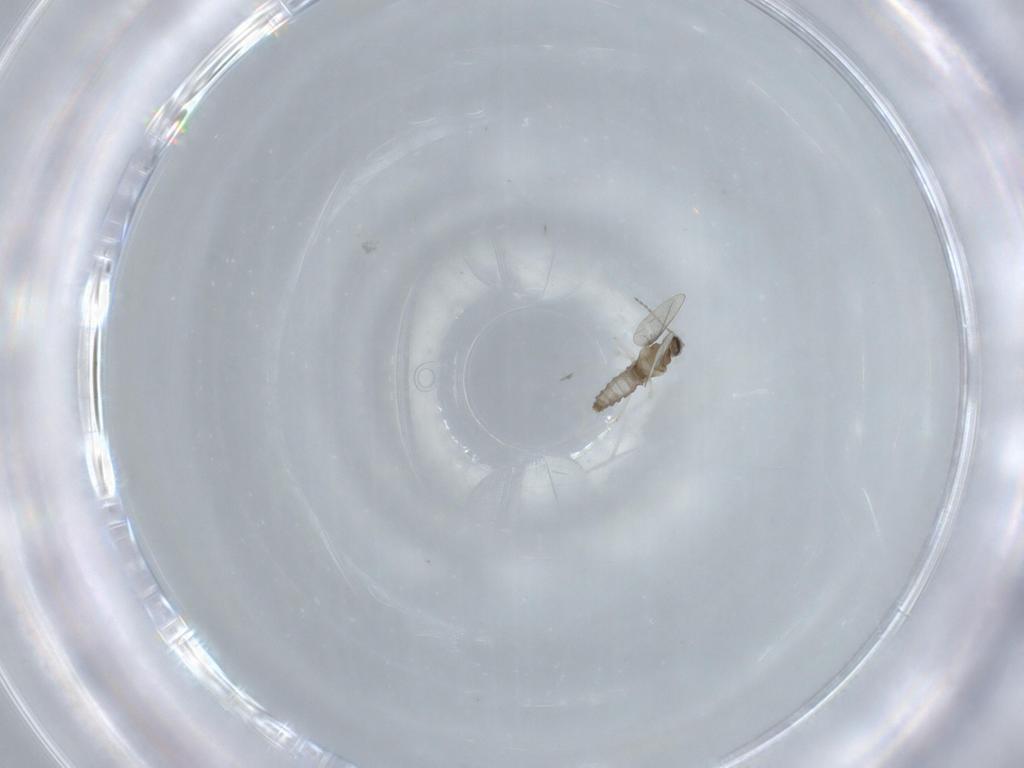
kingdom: Animalia
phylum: Arthropoda
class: Insecta
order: Diptera
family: Cecidomyiidae
